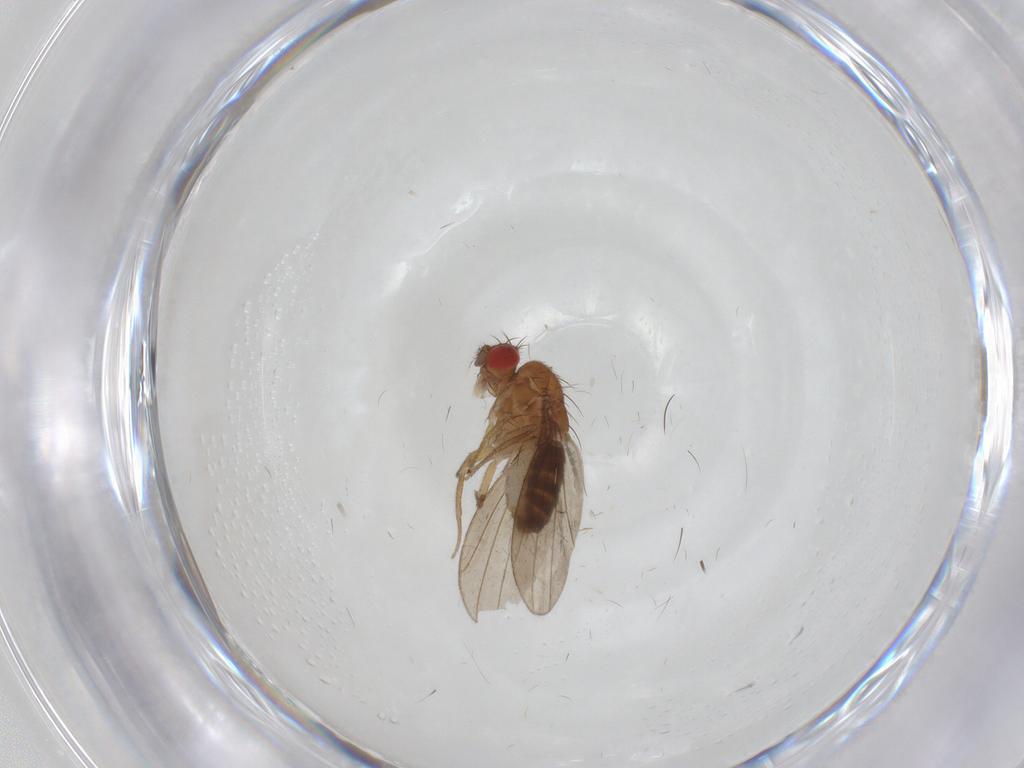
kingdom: Animalia
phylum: Arthropoda
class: Insecta
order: Diptera
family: Drosophilidae
